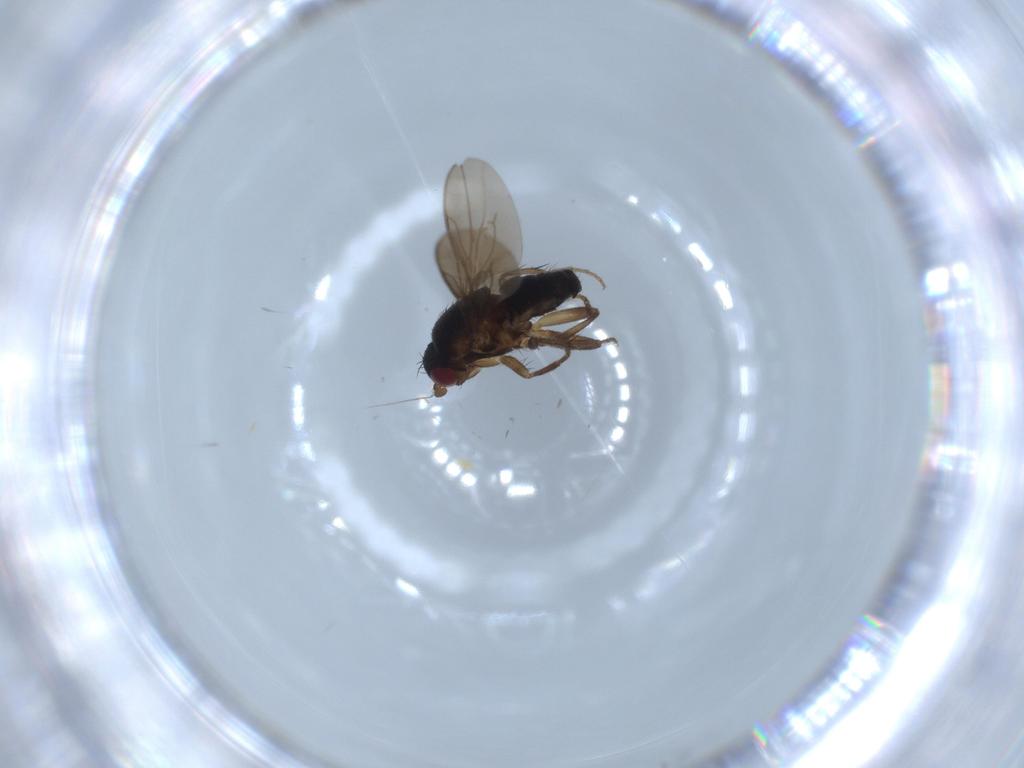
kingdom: Animalia
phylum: Arthropoda
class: Insecta
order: Diptera
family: Sphaeroceridae
